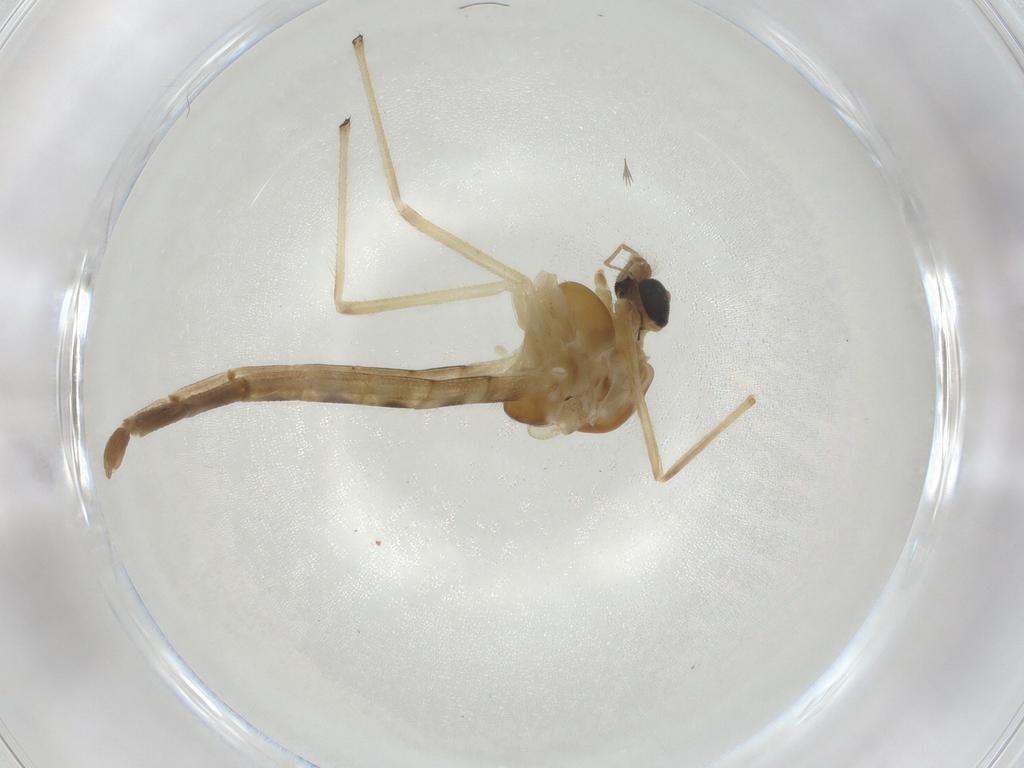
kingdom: Animalia
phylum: Arthropoda
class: Insecta
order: Diptera
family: Chironomidae
